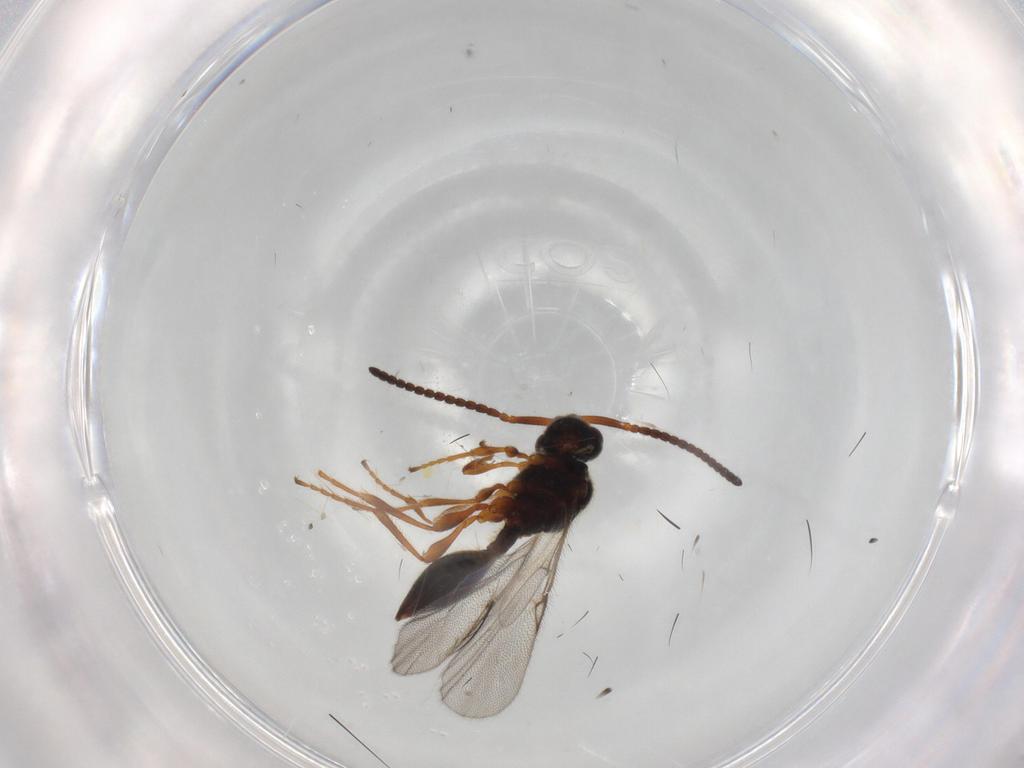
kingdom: Animalia
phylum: Arthropoda
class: Insecta
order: Hymenoptera
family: Diapriidae
